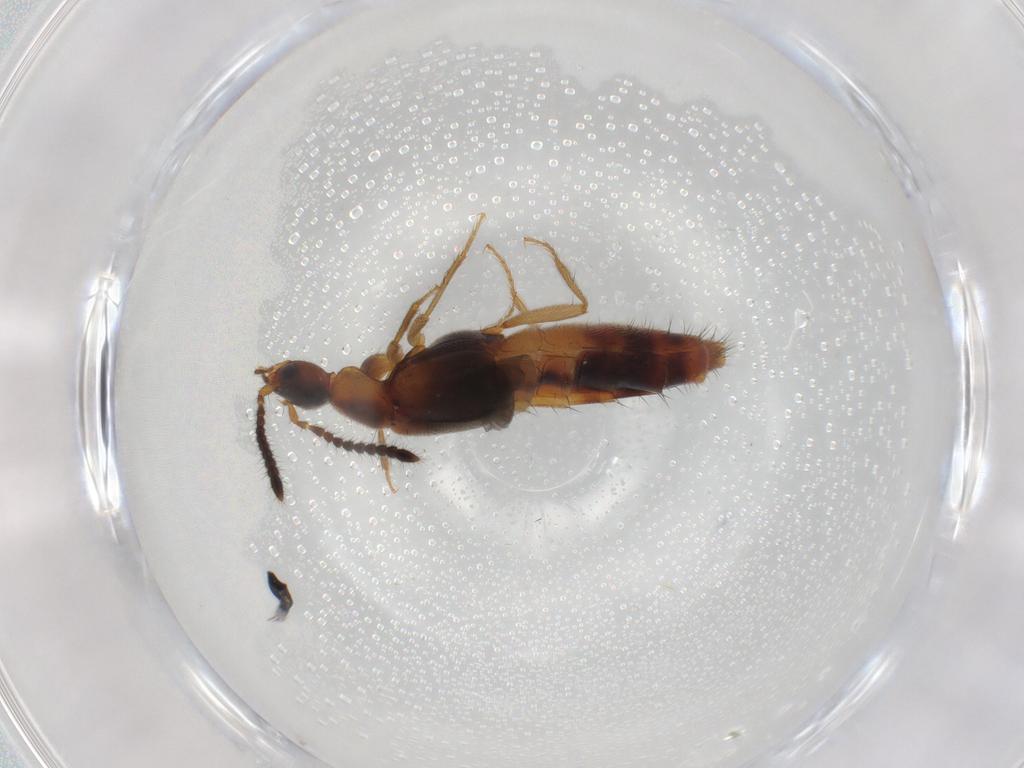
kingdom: Animalia
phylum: Arthropoda
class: Insecta
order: Coleoptera
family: Staphylinidae
